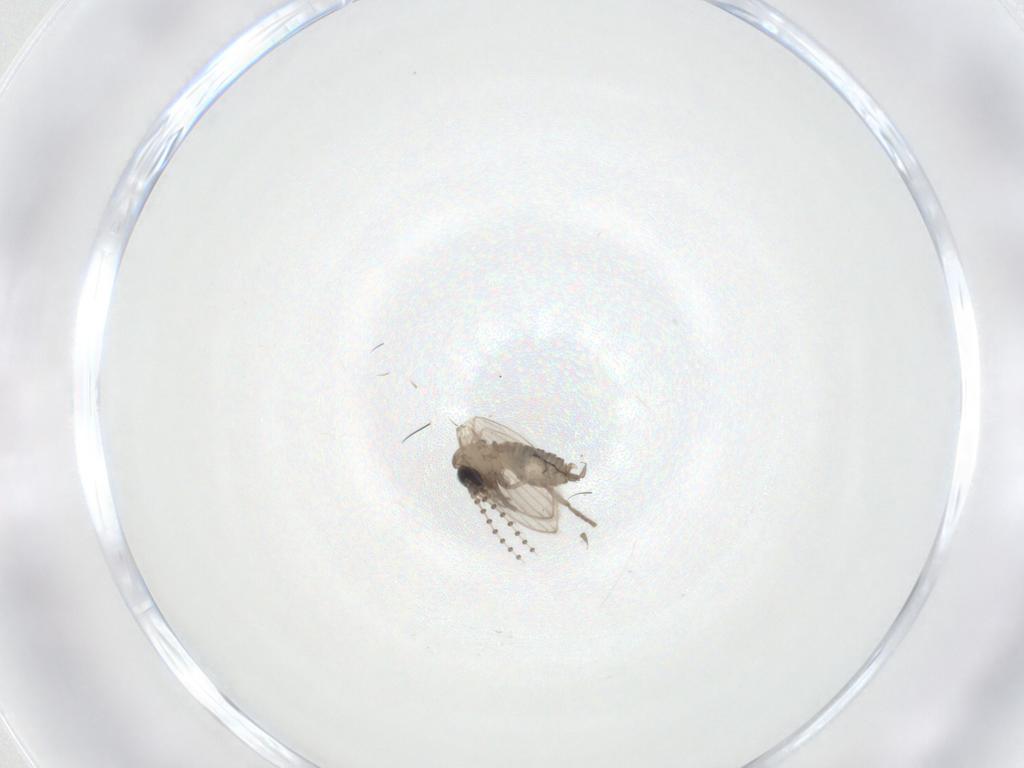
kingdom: Animalia
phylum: Arthropoda
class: Insecta
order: Diptera
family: Psychodidae
